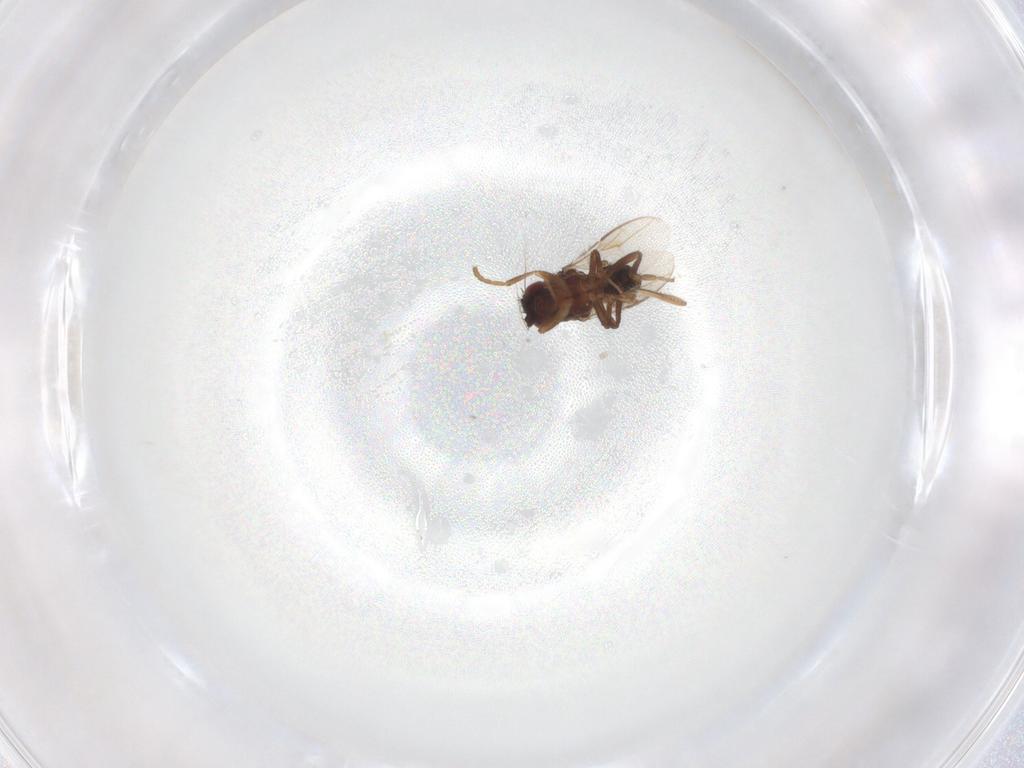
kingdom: Animalia
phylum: Arthropoda
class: Insecta
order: Diptera
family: Sphaeroceridae
